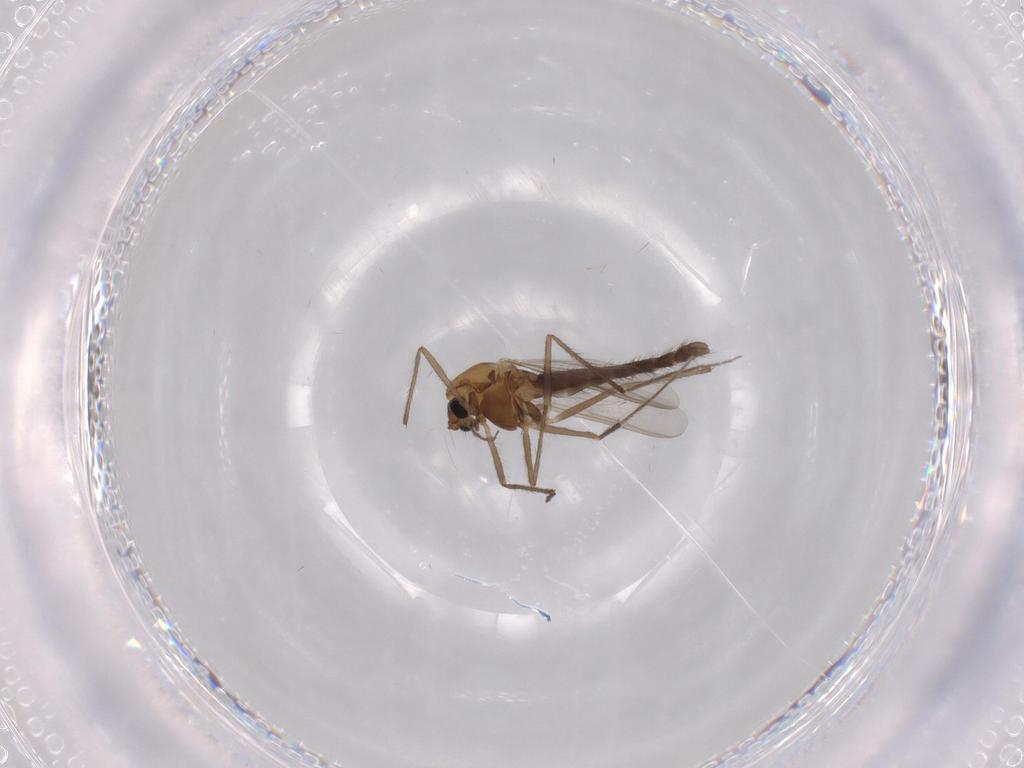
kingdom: Animalia
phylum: Arthropoda
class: Insecta
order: Diptera
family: Chironomidae
